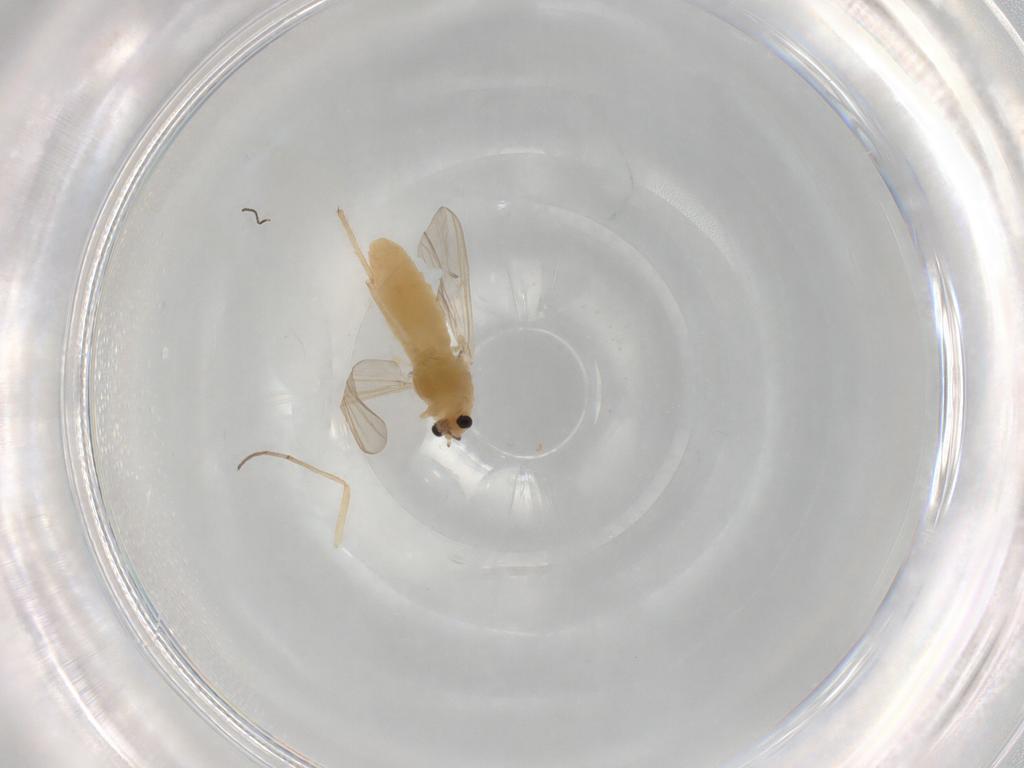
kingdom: Animalia
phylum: Arthropoda
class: Insecta
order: Diptera
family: Chironomidae
